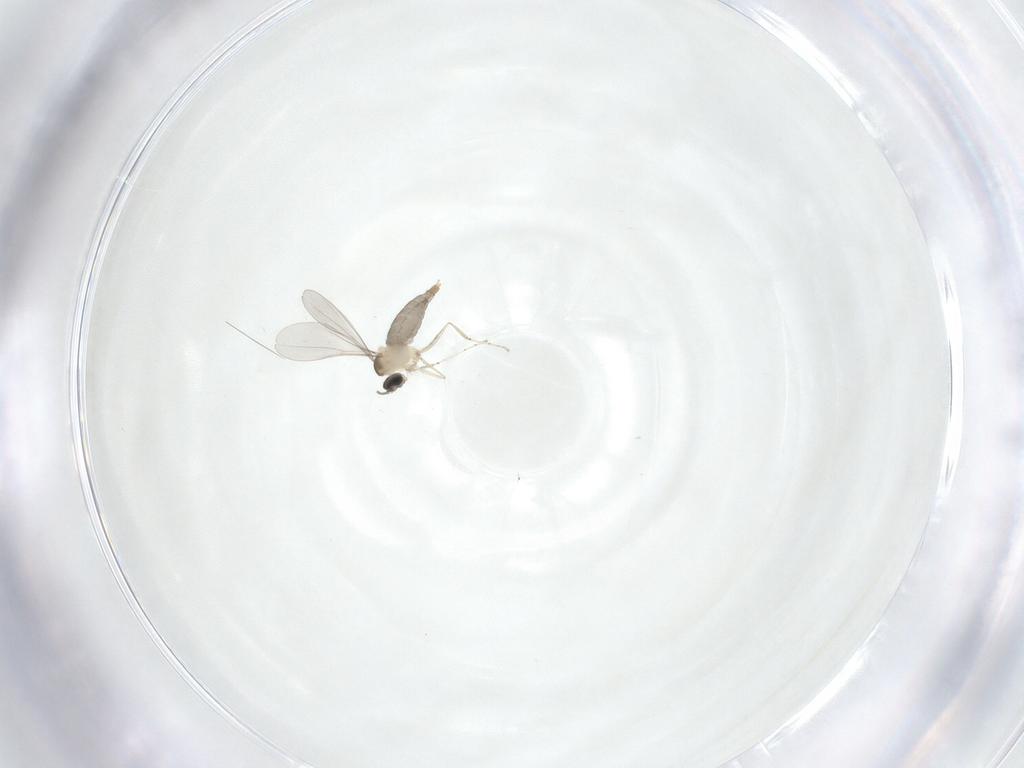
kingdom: Animalia
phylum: Arthropoda
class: Insecta
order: Diptera
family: Cecidomyiidae
